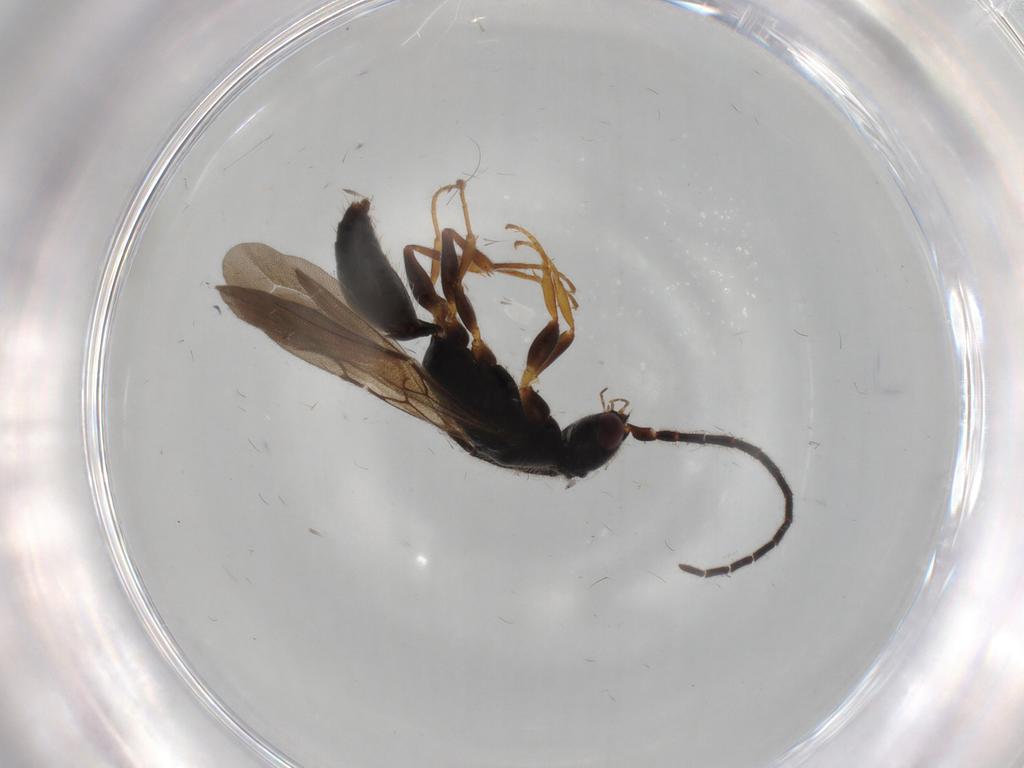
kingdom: Animalia
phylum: Arthropoda
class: Insecta
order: Hymenoptera
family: Bethylidae
